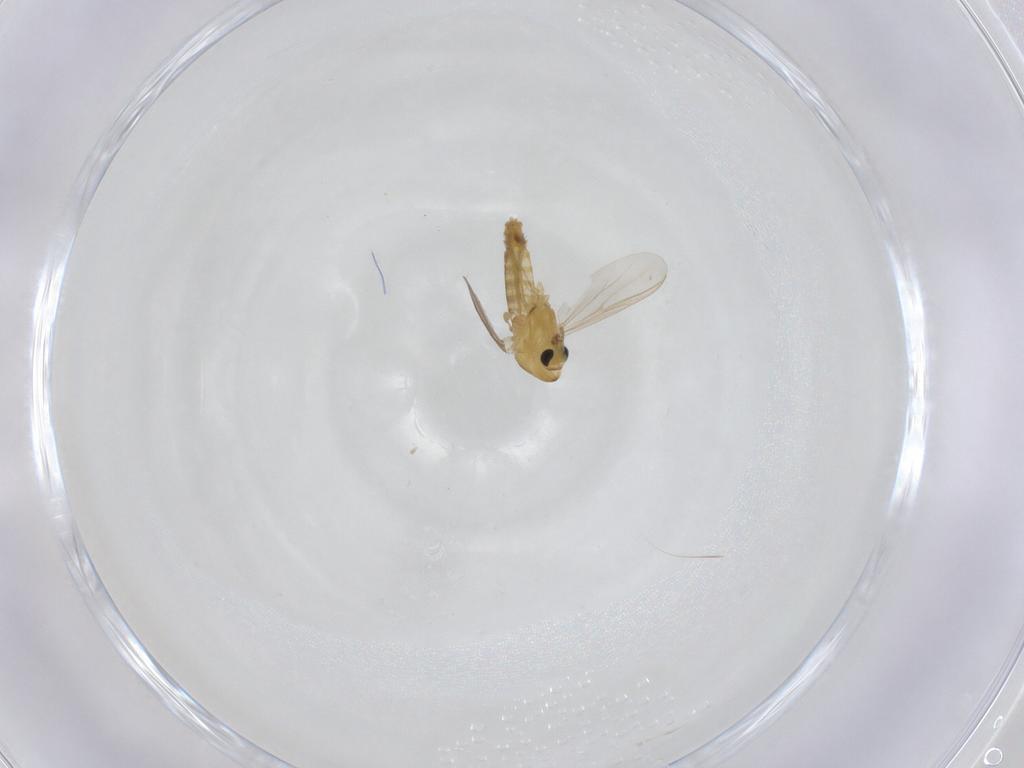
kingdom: Animalia
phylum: Arthropoda
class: Insecta
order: Diptera
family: Chironomidae
